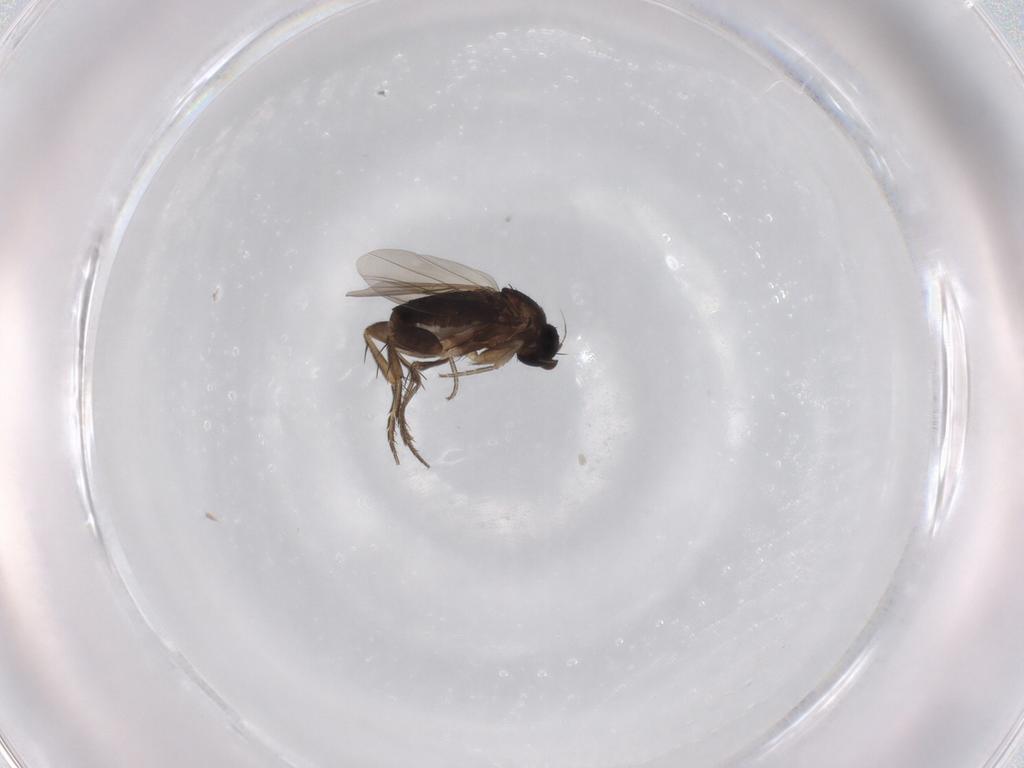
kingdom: Animalia
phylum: Arthropoda
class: Insecta
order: Diptera
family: Phoridae
